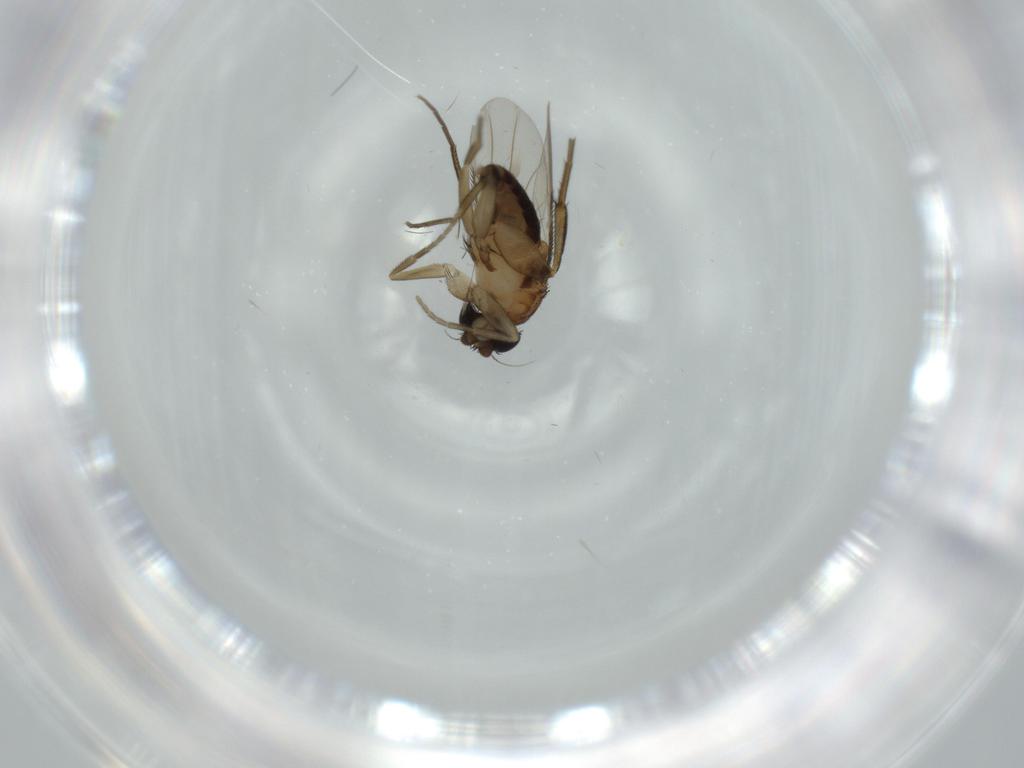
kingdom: Animalia
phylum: Arthropoda
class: Insecta
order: Diptera
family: Phoridae
